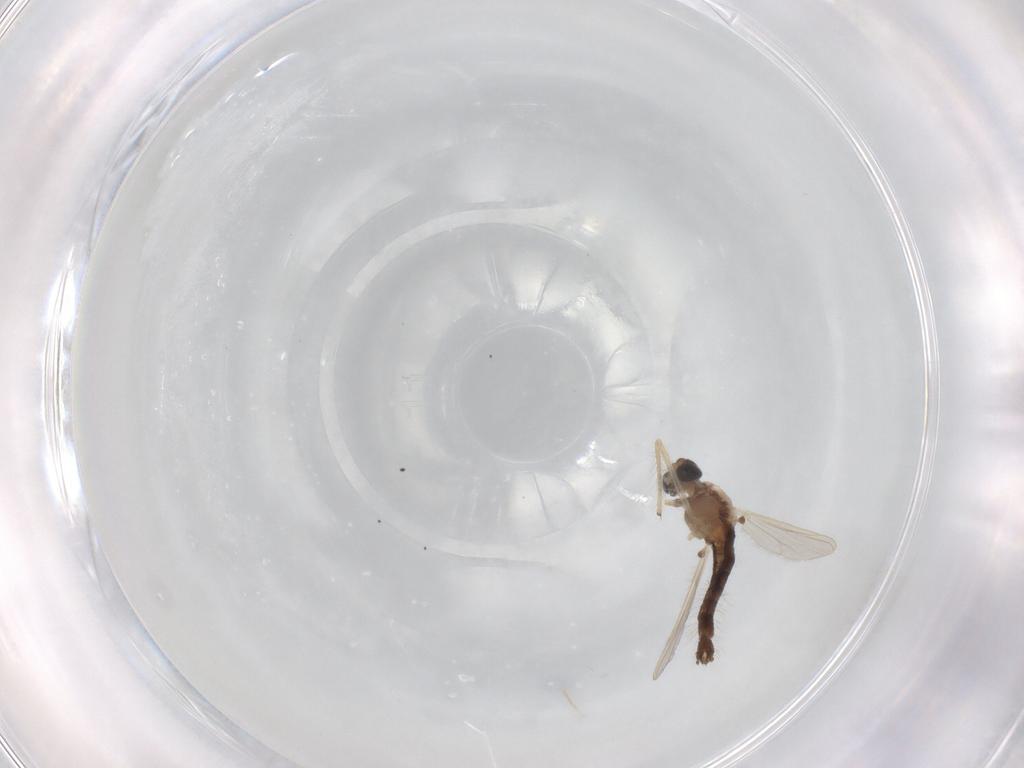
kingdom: Animalia
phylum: Arthropoda
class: Insecta
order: Diptera
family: Chironomidae
